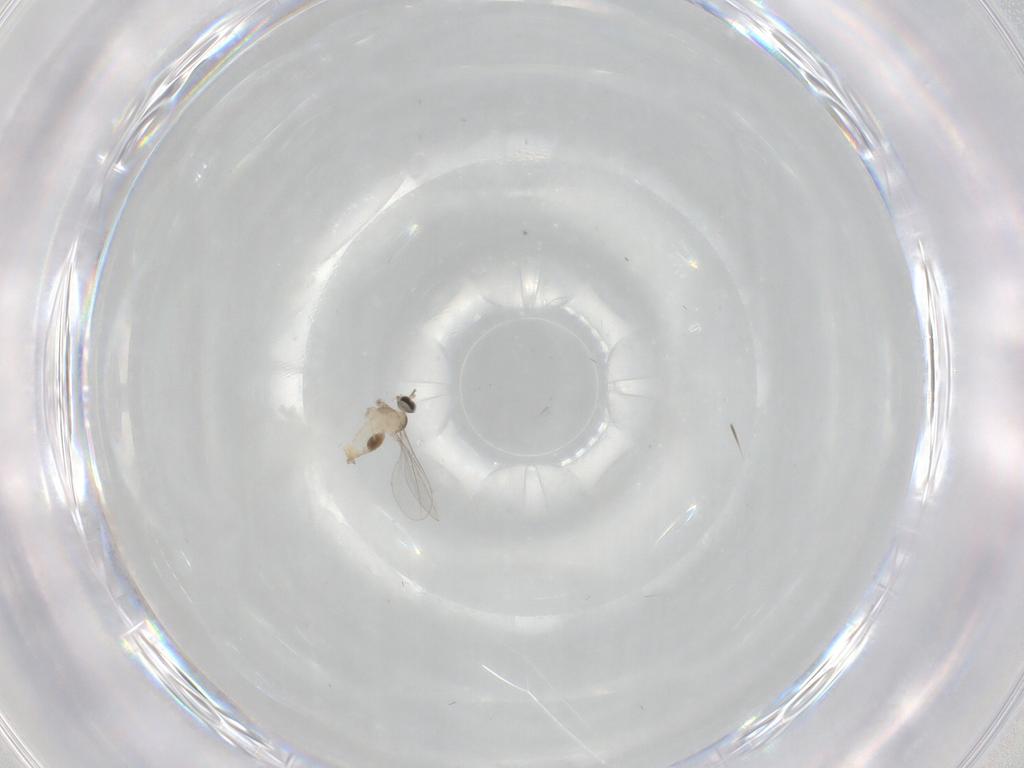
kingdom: Animalia
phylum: Arthropoda
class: Insecta
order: Diptera
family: Cecidomyiidae
